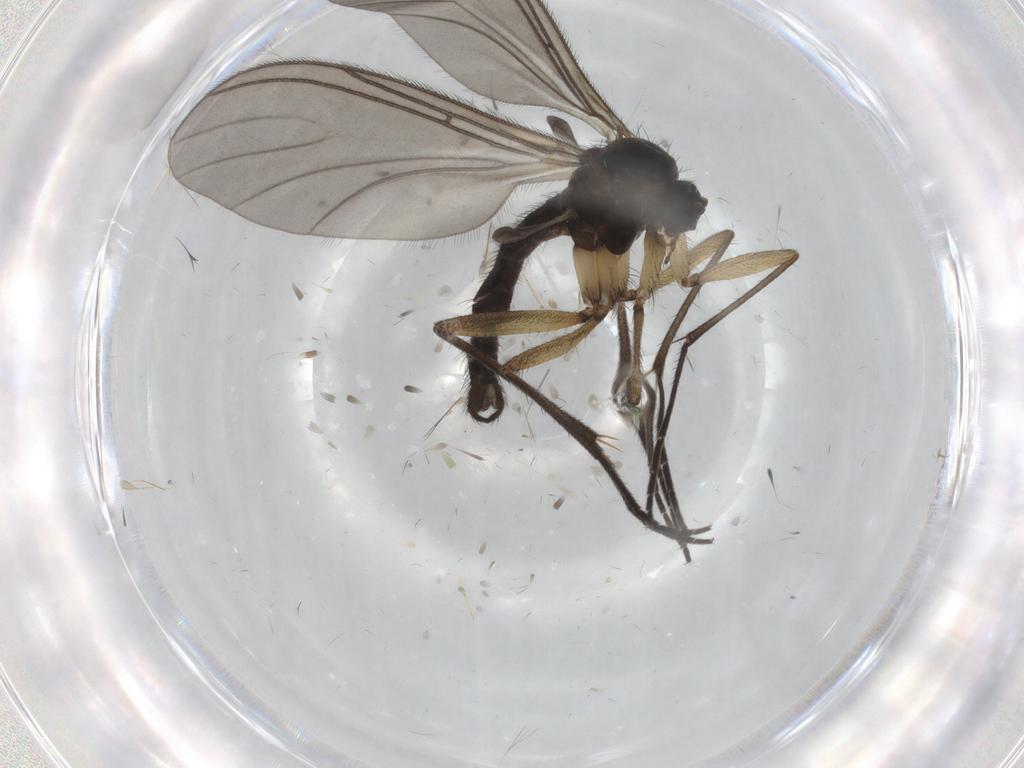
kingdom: Animalia
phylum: Arthropoda
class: Insecta
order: Diptera
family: Sciaridae
